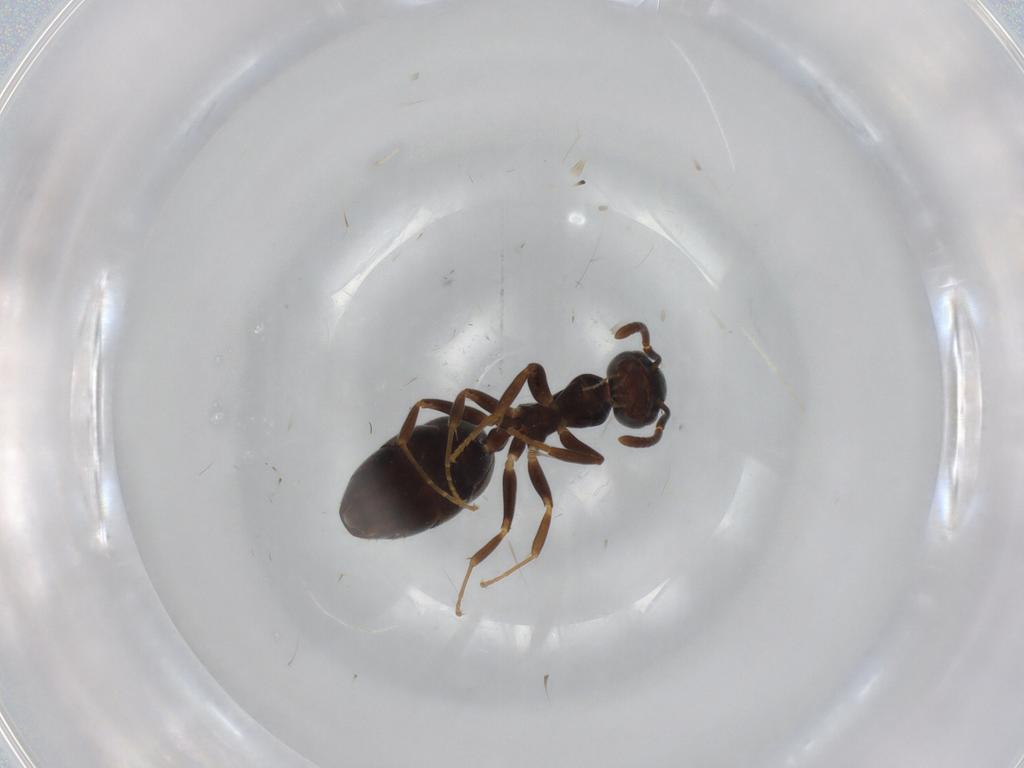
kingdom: Animalia
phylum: Arthropoda
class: Insecta
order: Hymenoptera
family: Formicidae
